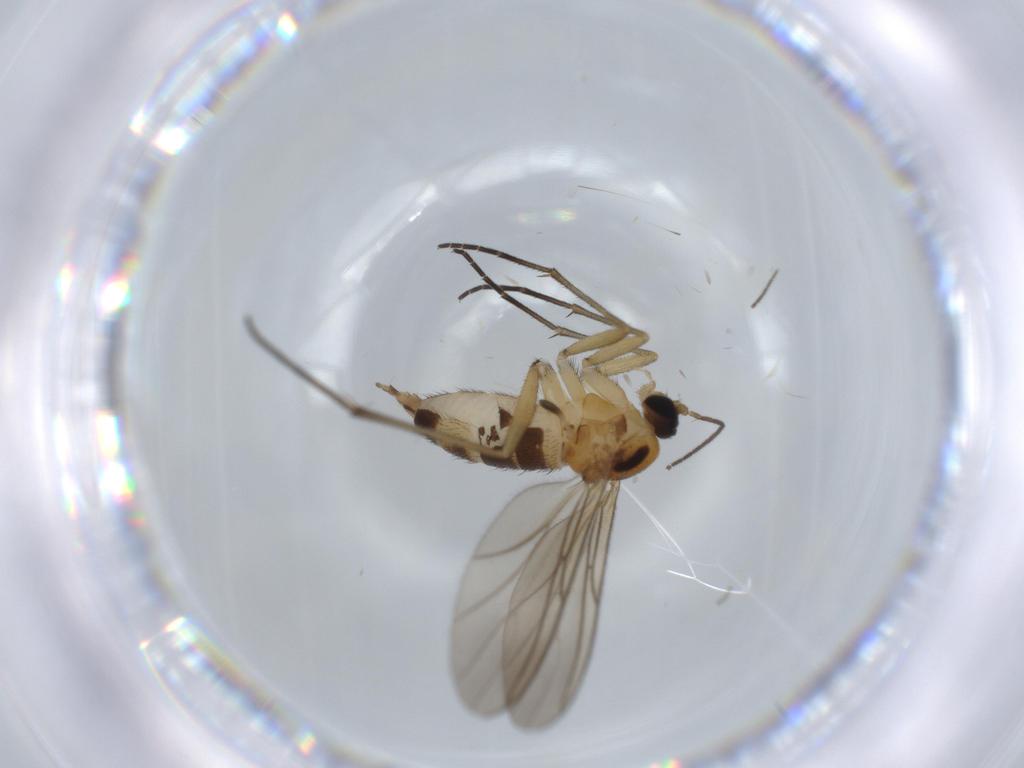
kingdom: Animalia
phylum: Arthropoda
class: Insecta
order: Diptera
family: Sciaridae
